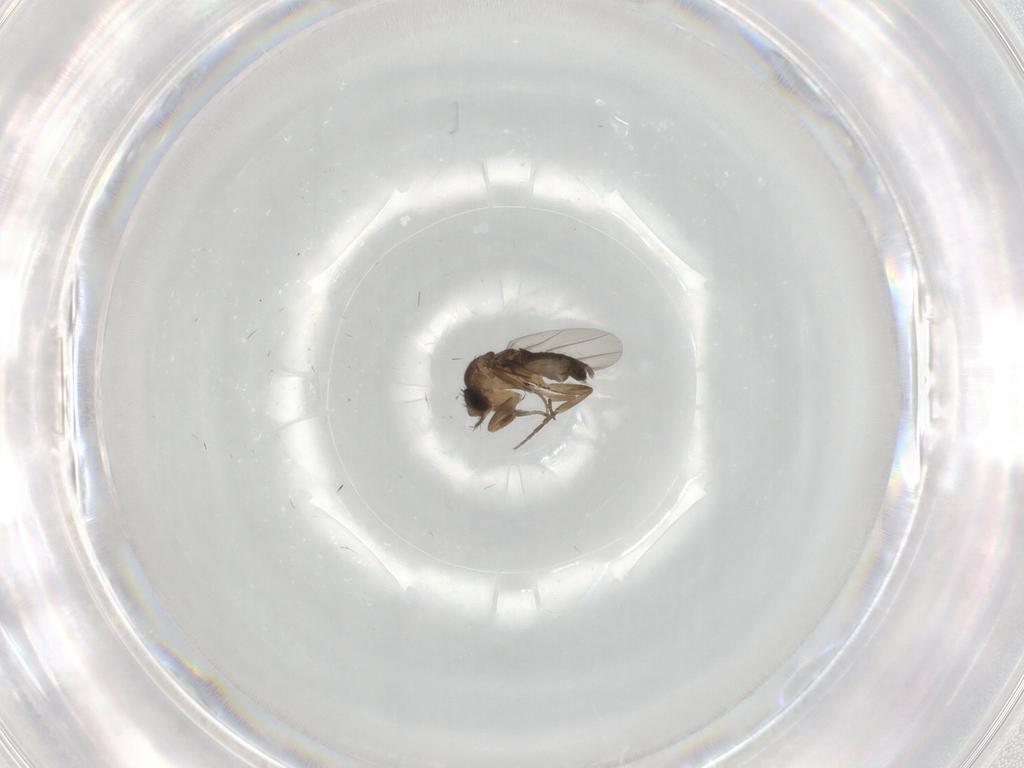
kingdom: Animalia
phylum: Arthropoda
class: Insecta
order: Diptera
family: Phoridae
